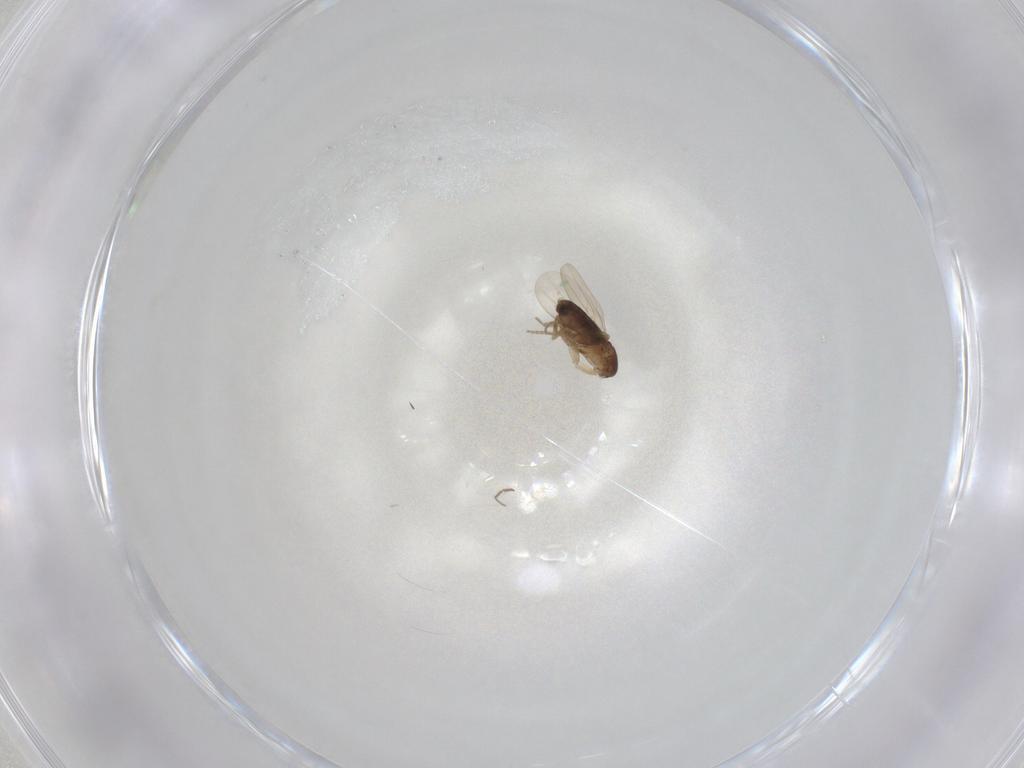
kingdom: Animalia
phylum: Arthropoda
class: Insecta
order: Diptera
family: Phoridae
